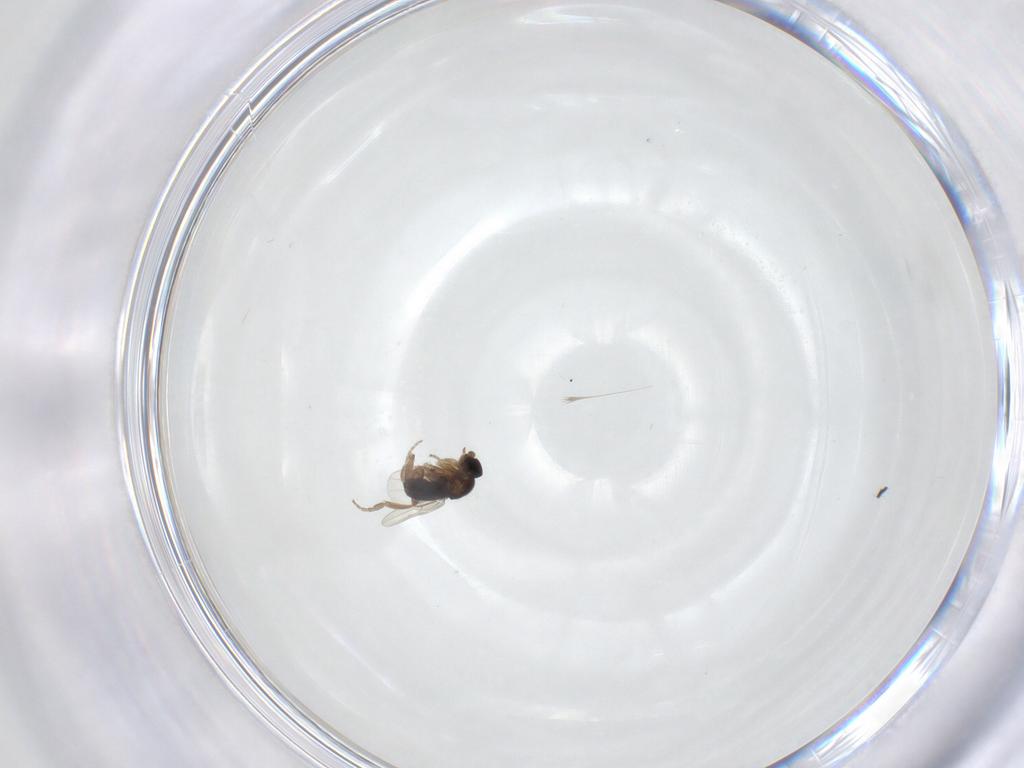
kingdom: Animalia
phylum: Arthropoda
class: Insecta
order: Diptera
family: Phoridae
